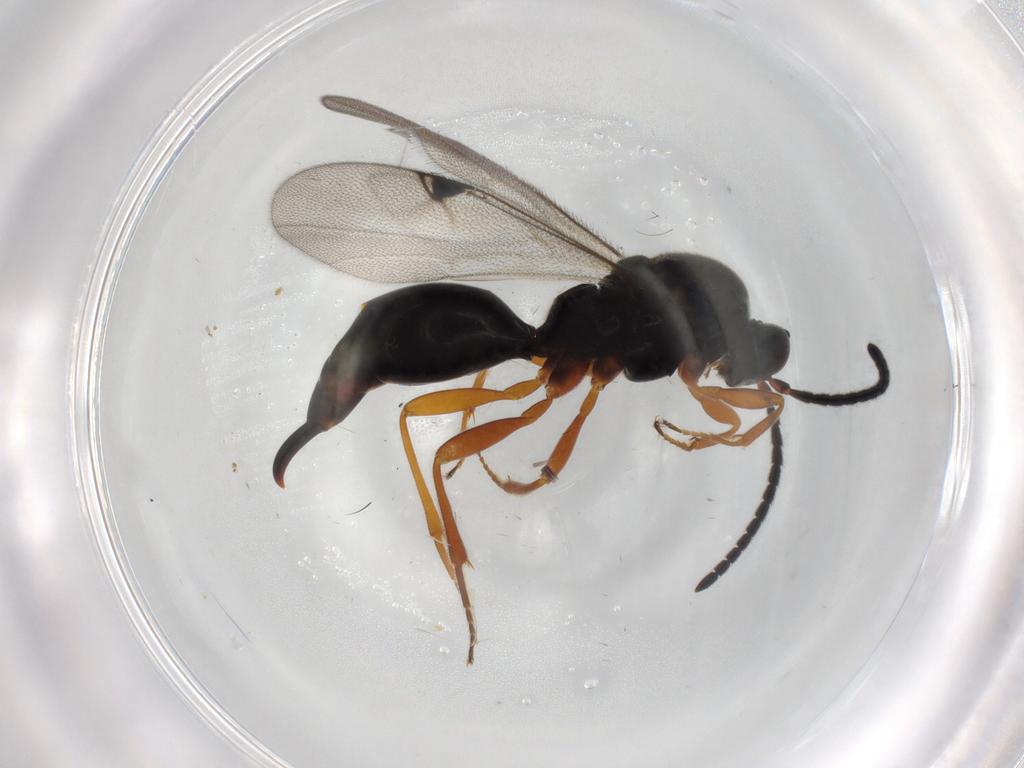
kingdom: Animalia
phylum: Arthropoda
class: Insecta
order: Hymenoptera
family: Proctotrupidae
